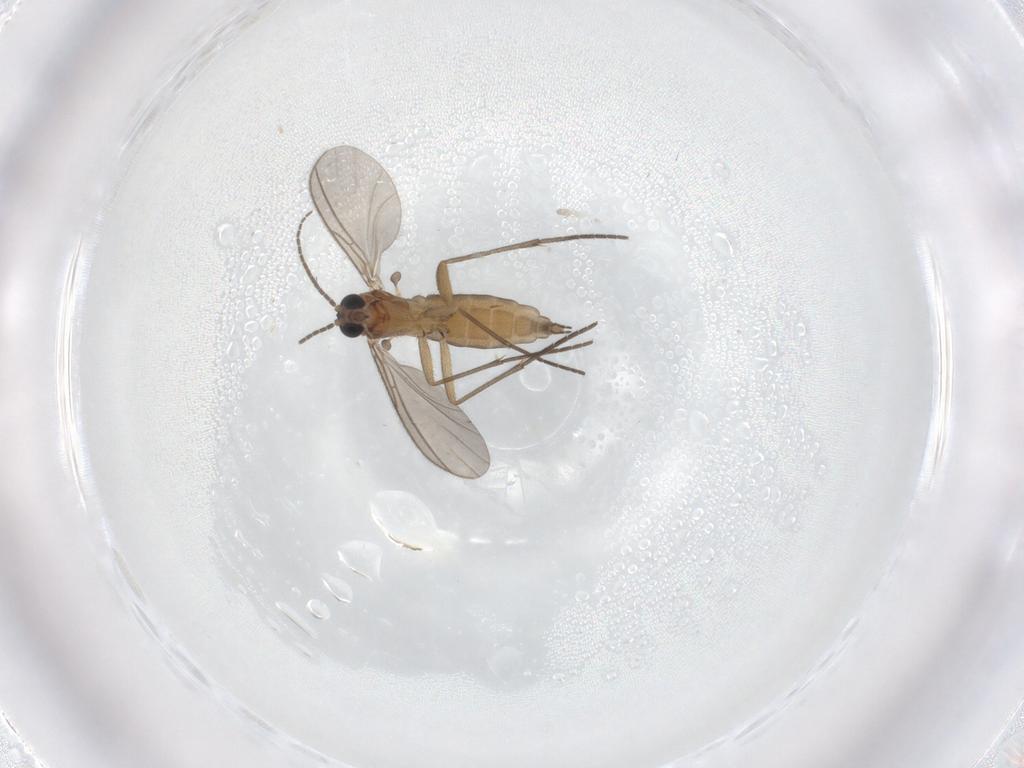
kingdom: Animalia
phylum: Arthropoda
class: Insecta
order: Diptera
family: Sciaridae
